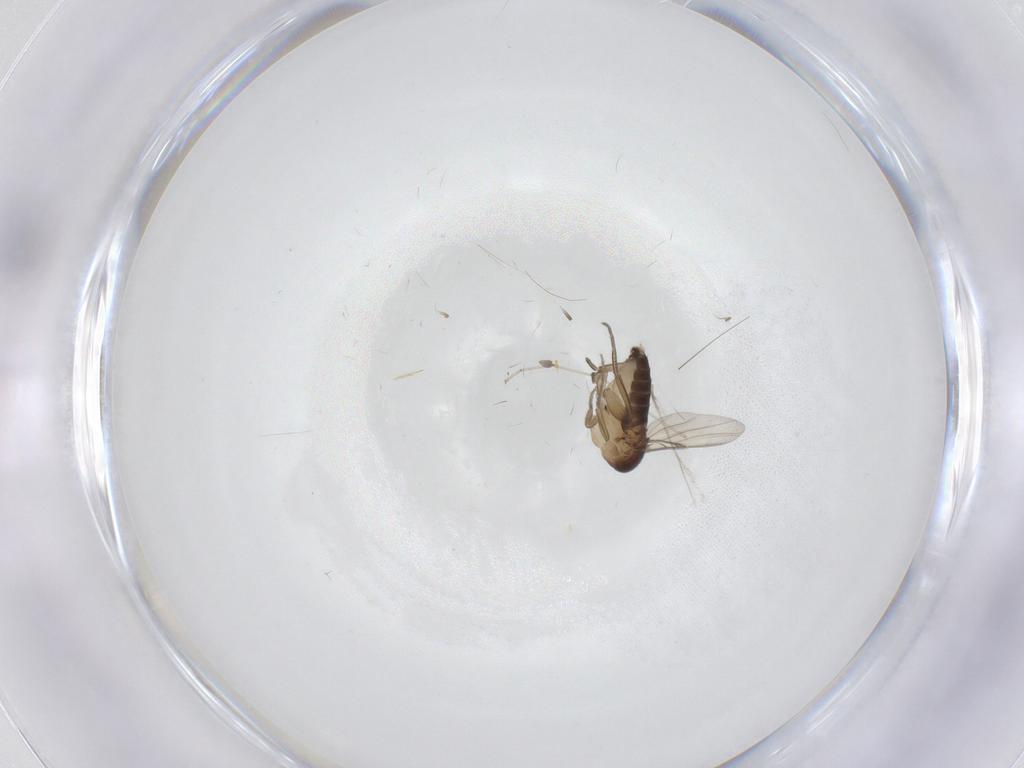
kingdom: Animalia
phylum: Arthropoda
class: Insecta
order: Diptera
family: Phoridae
